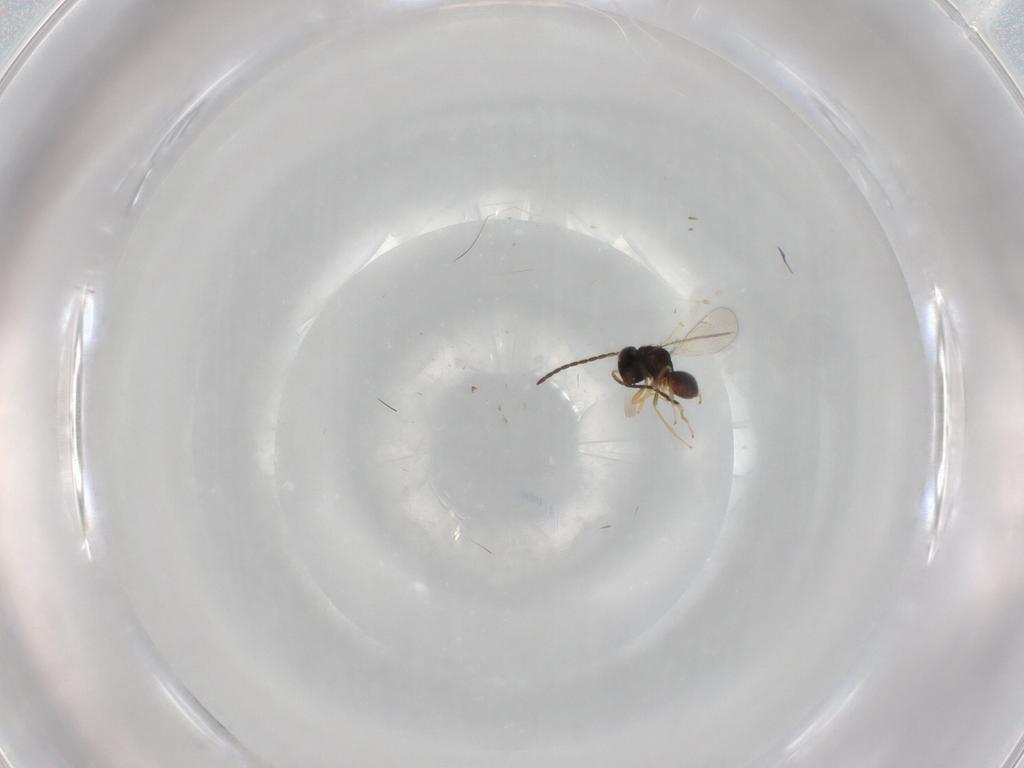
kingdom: Animalia
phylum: Arthropoda
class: Insecta
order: Hymenoptera
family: Diparidae
